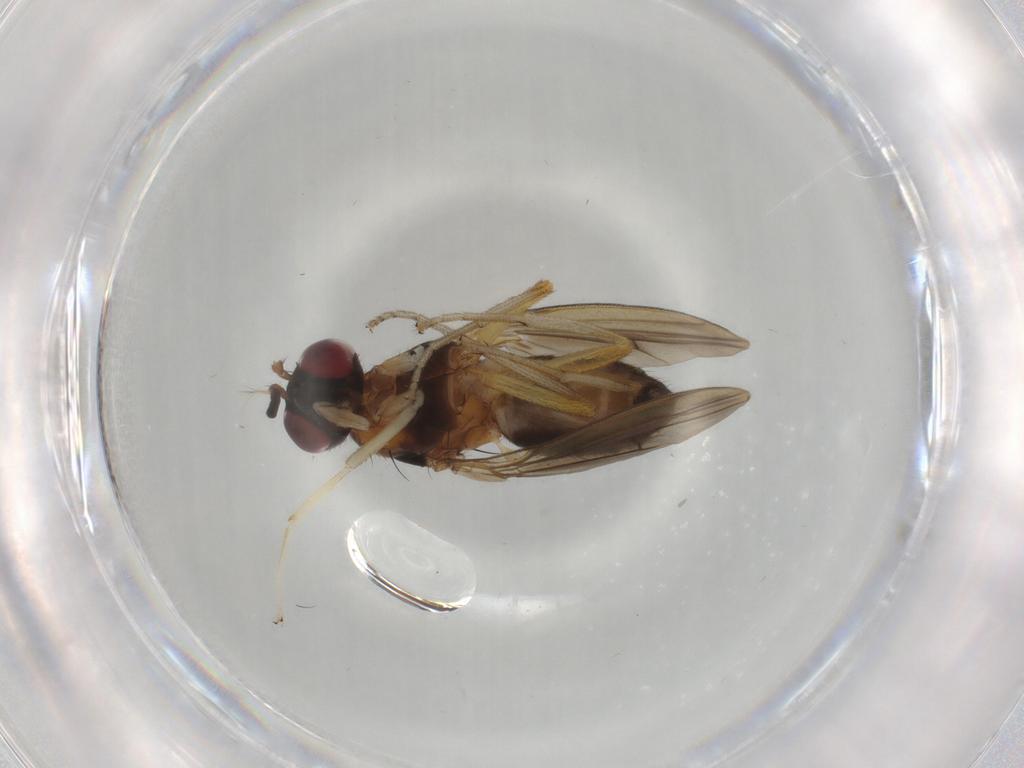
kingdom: Animalia
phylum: Arthropoda
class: Insecta
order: Diptera
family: Lauxaniidae
